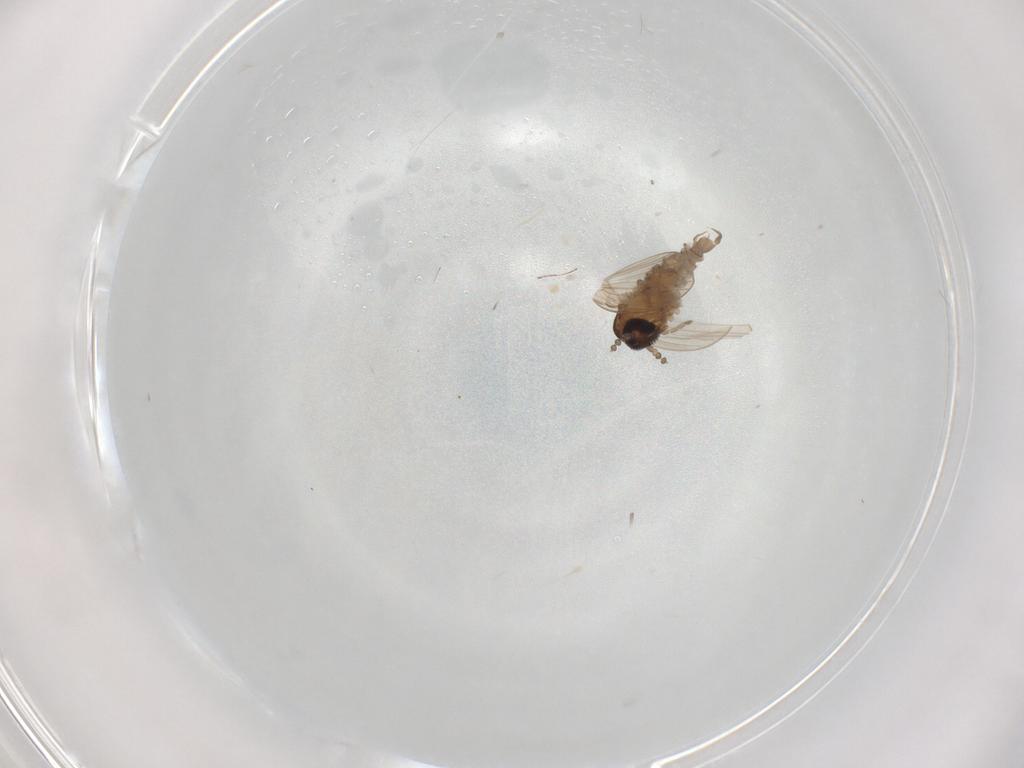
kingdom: Animalia
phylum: Arthropoda
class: Insecta
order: Diptera
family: Psychodidae
